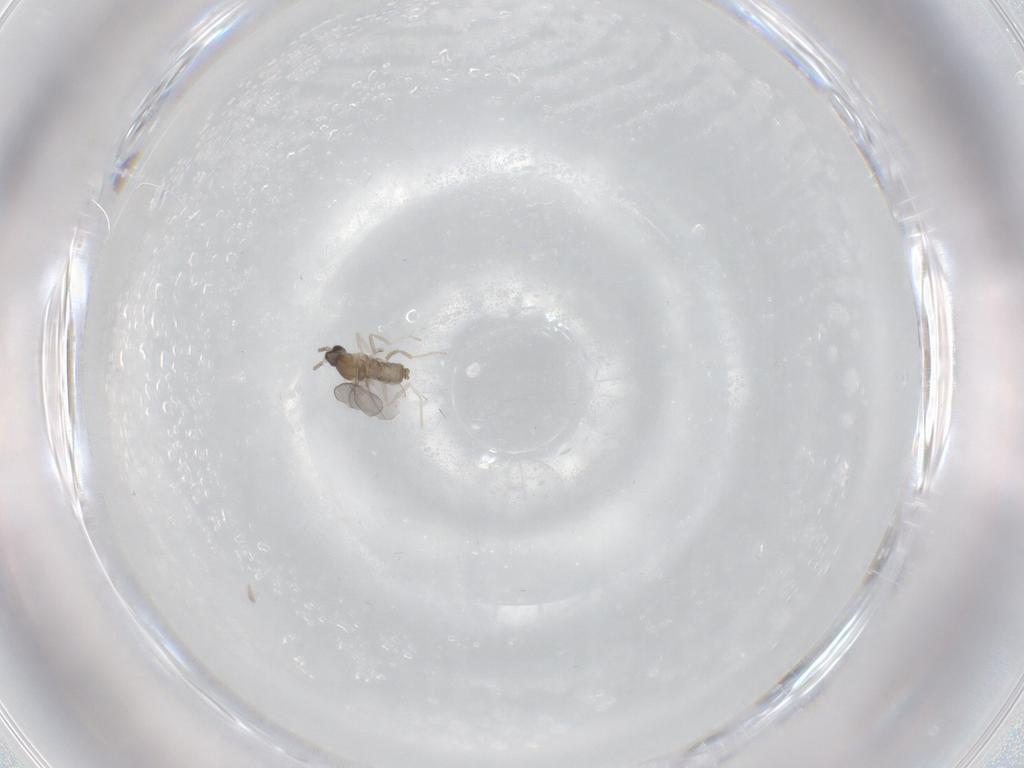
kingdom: Animalia
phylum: Arthropoda
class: Insecta
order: Diptera
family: Cecidomyiidae
